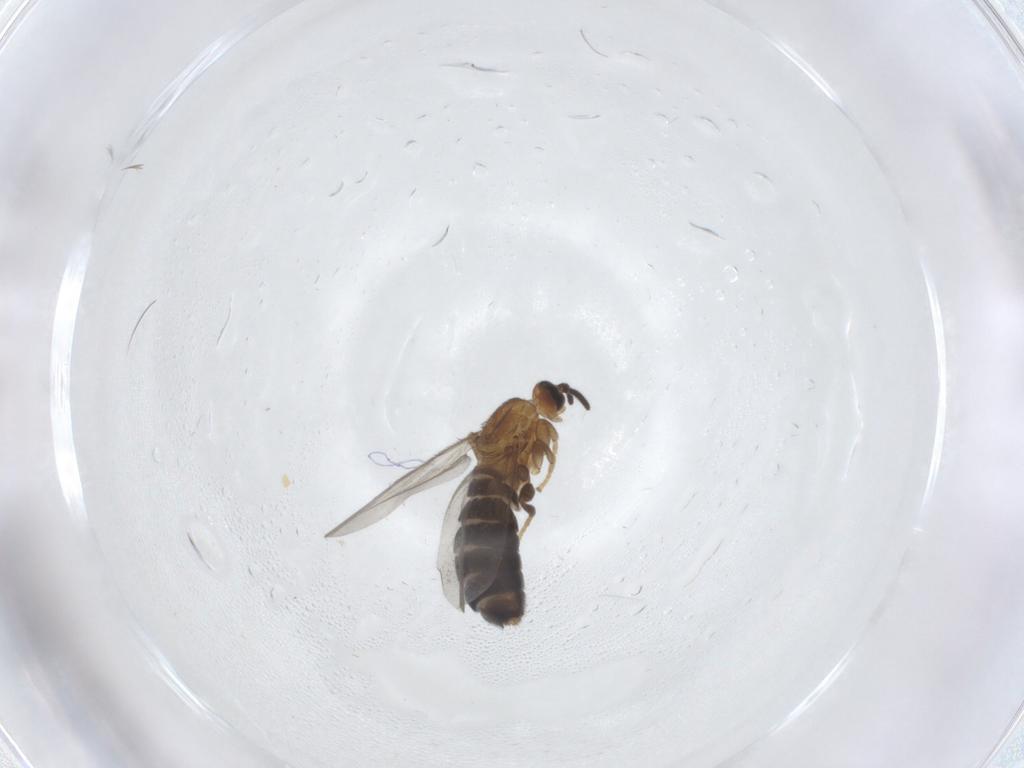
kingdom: Animalia
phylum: Arthropoda
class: Insecta
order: Diptera
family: Scatopsidae
